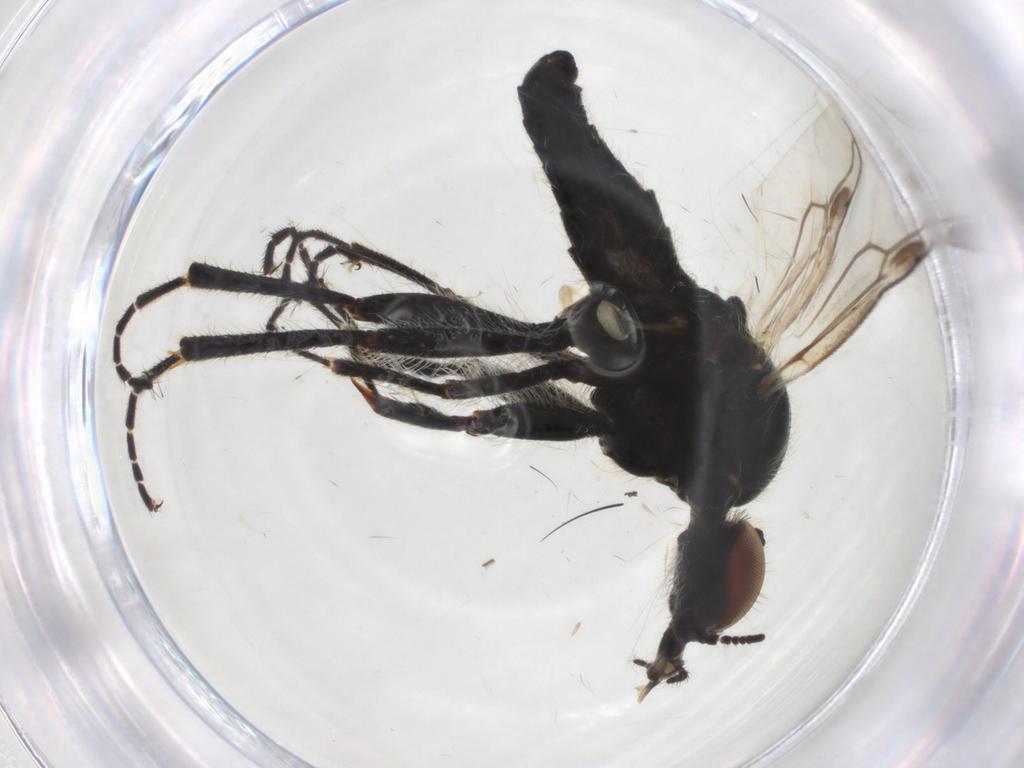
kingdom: Animalia
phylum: Arthropoda
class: Insecta
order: Diptera
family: Bibionidae
